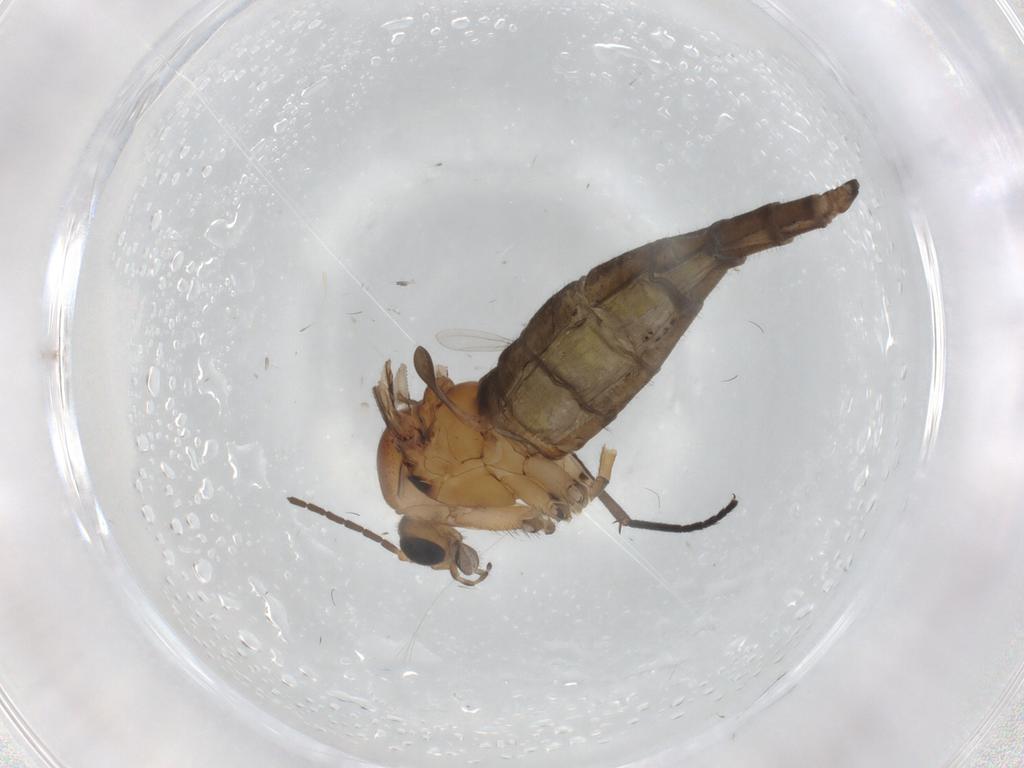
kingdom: Animalia
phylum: Arthropoda
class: Insecta
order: Diptera
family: Sciaridae
